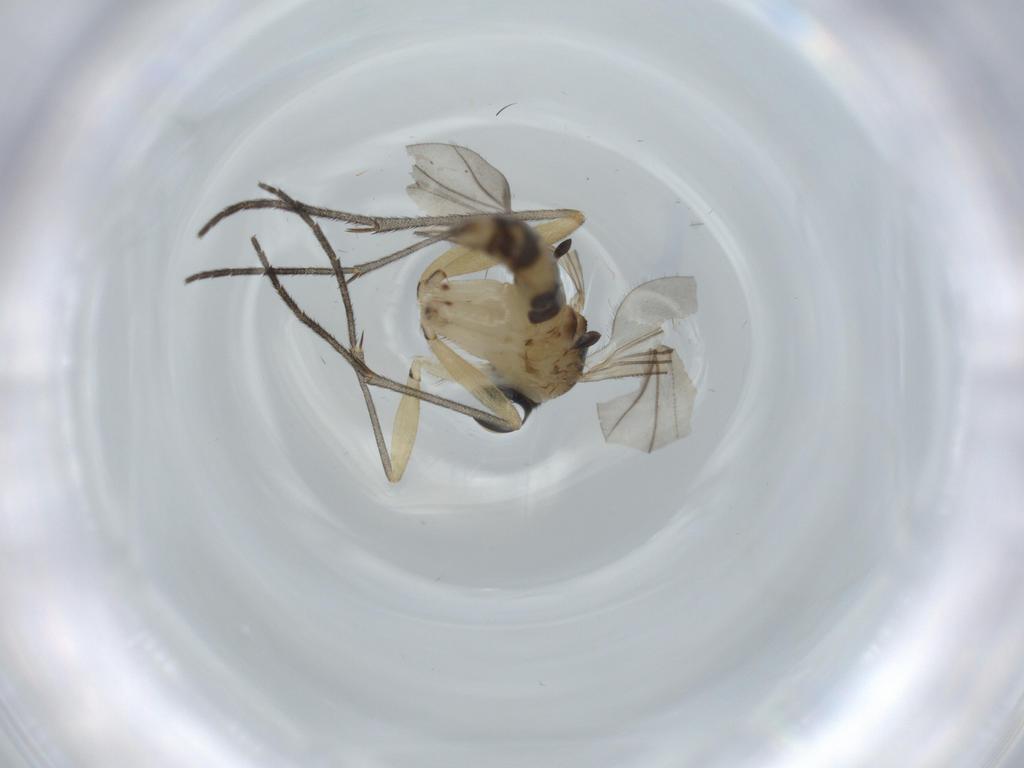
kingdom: Animalia
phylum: Arthropoda
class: Insecta
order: Diptera
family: Sciaridae
